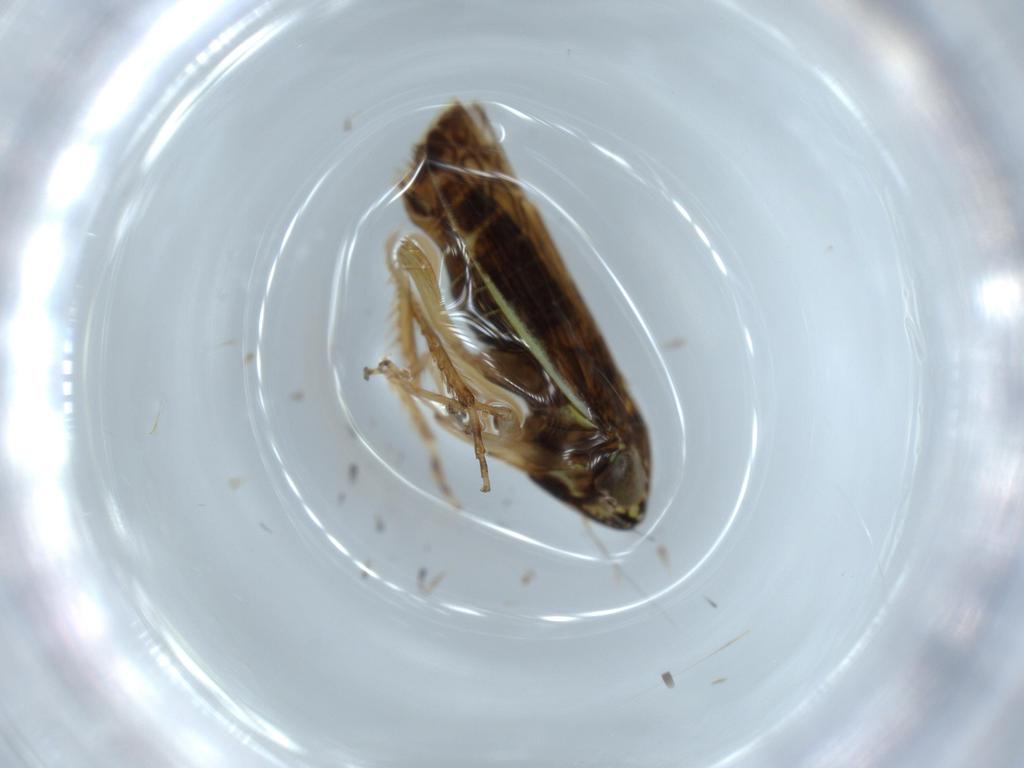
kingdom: Animalia
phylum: Arthropoda
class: Insecta
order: Hemiptera
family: Cicadellidae
